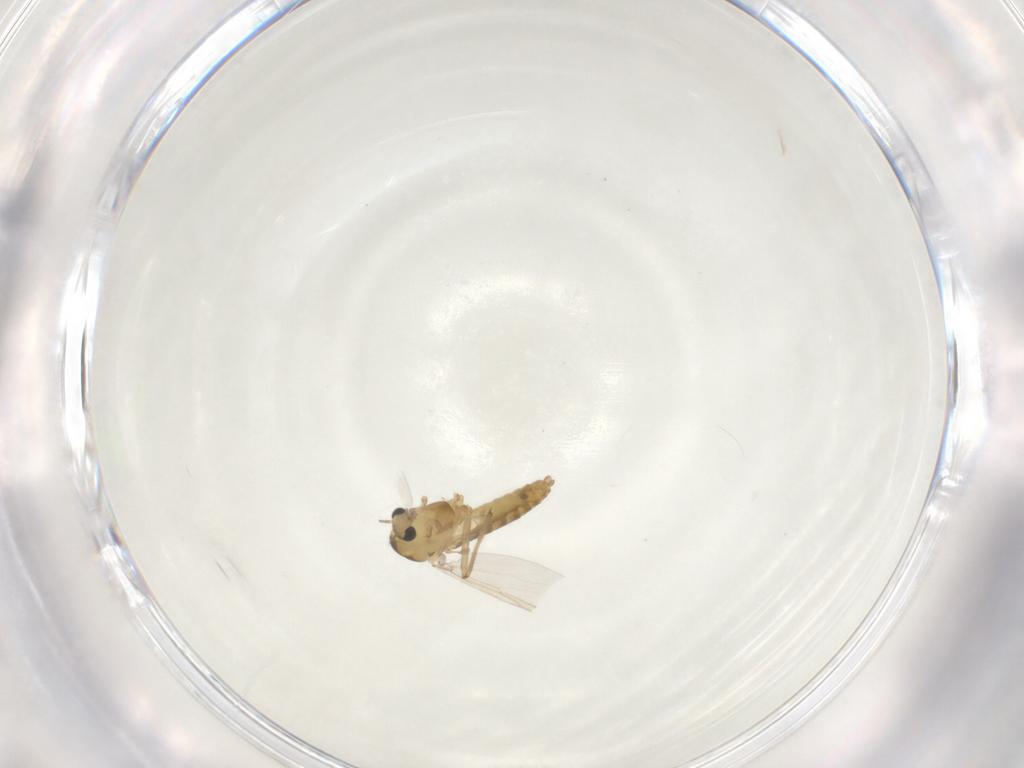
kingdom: Animalia
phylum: Arthropoda
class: Insecta
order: Diptera
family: Chironomidae
